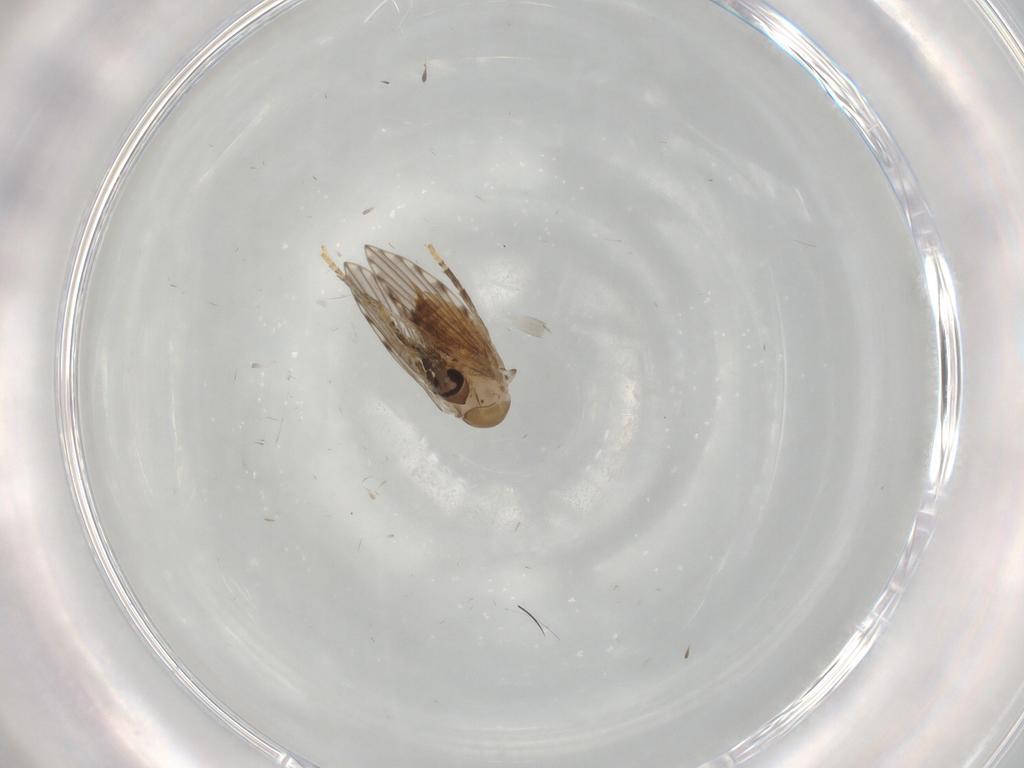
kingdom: Animalia
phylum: Arthropoda
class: Insecta
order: Diptera
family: Psychodidae
